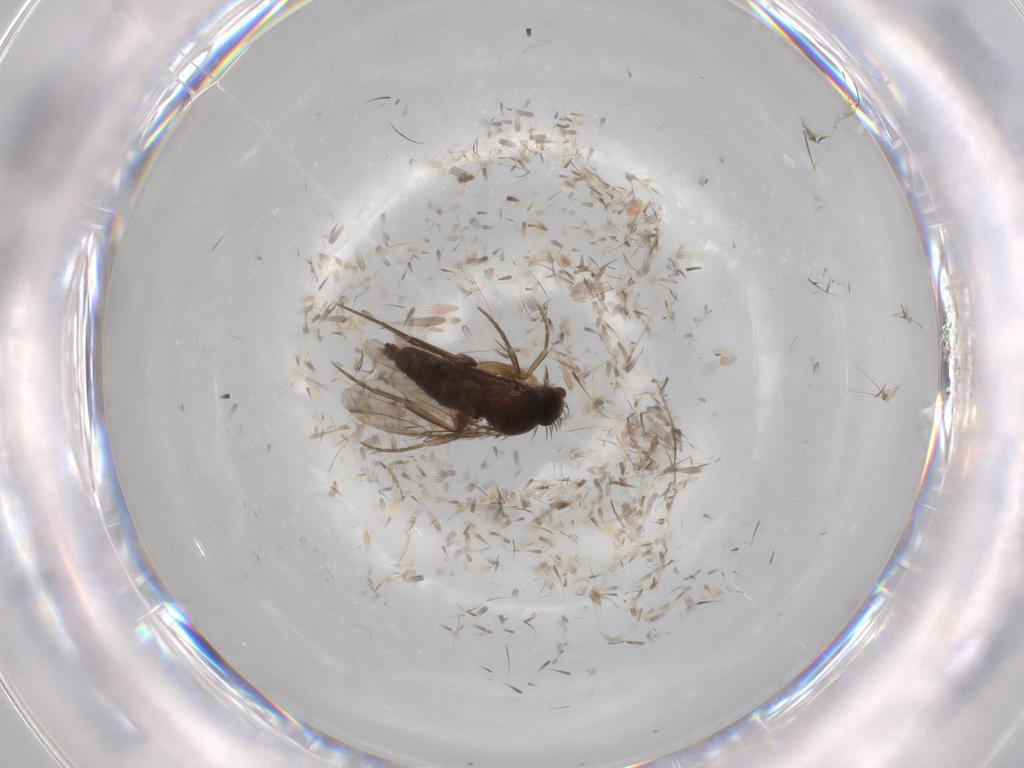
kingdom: Animalia
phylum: Arthropoda
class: Insecta
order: Diptera
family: Phoridae
